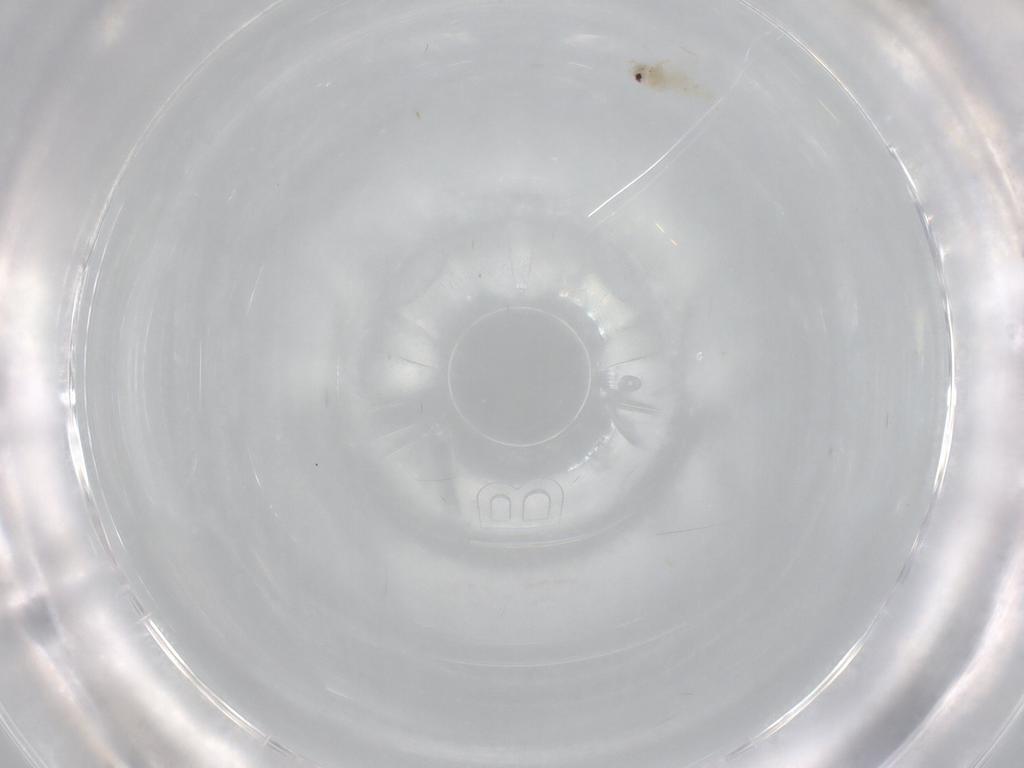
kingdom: Animalia
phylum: Arthropoda
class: Insecta
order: Hemiptera
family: Aleyrodidae
